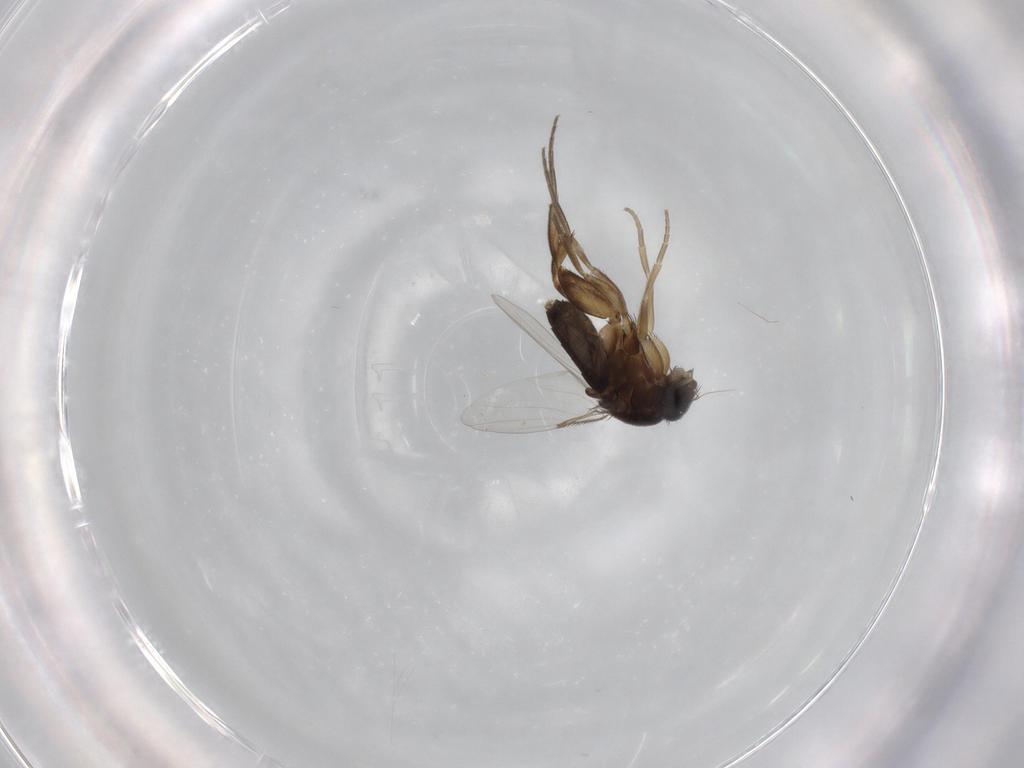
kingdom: Animalia
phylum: Arthropoda
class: Insecta
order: Diptera
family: Phoridae
